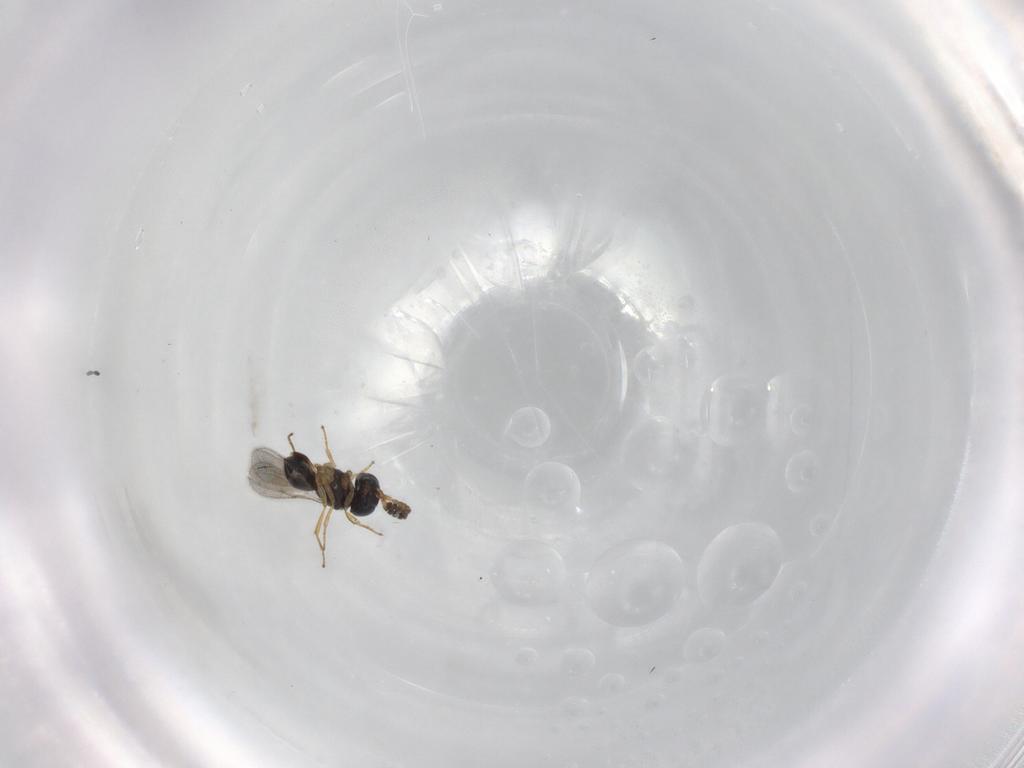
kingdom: Animalia
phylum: Arthropoda
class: Insecta
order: Hymenoptera
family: Scelionidae
